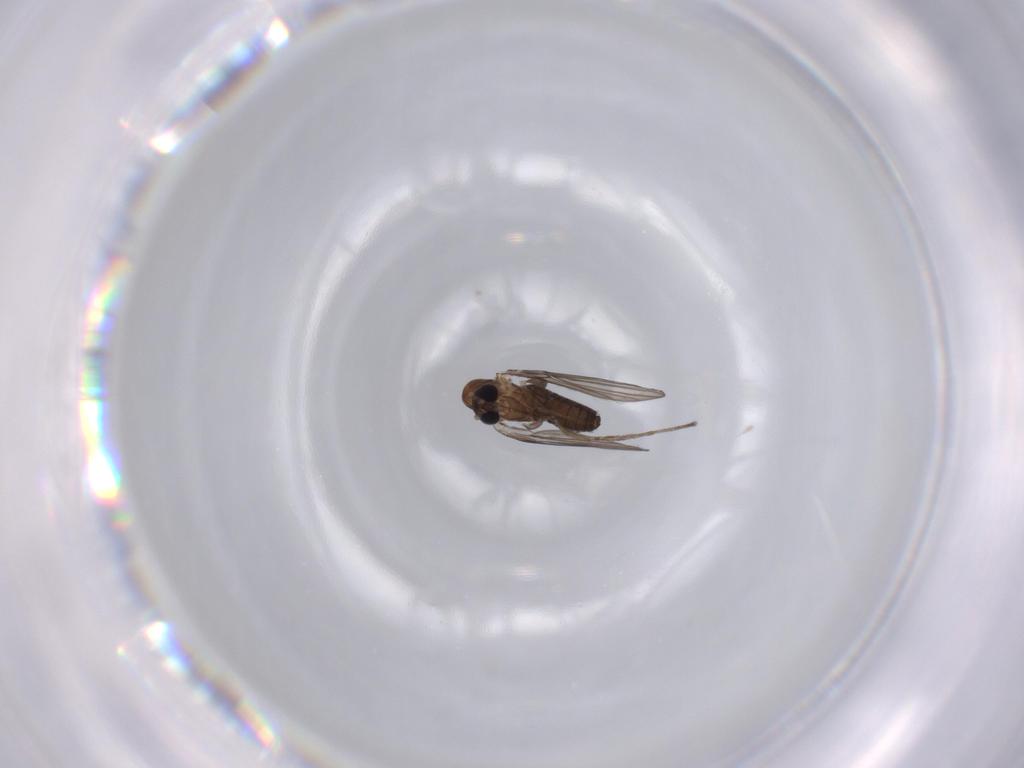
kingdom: Animalia
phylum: Arthropoda
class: Insecta
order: Diptera
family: Psychodidae
